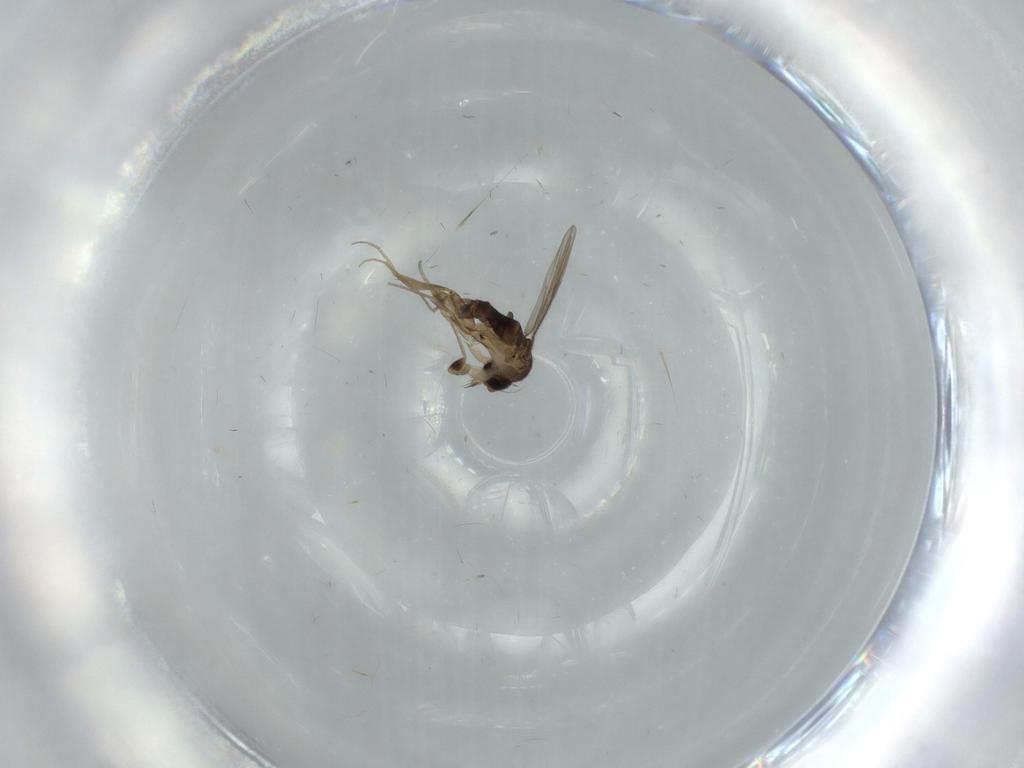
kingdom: Animalia
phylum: Arthropoda
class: Insecta
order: Diptera
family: Phoridae
